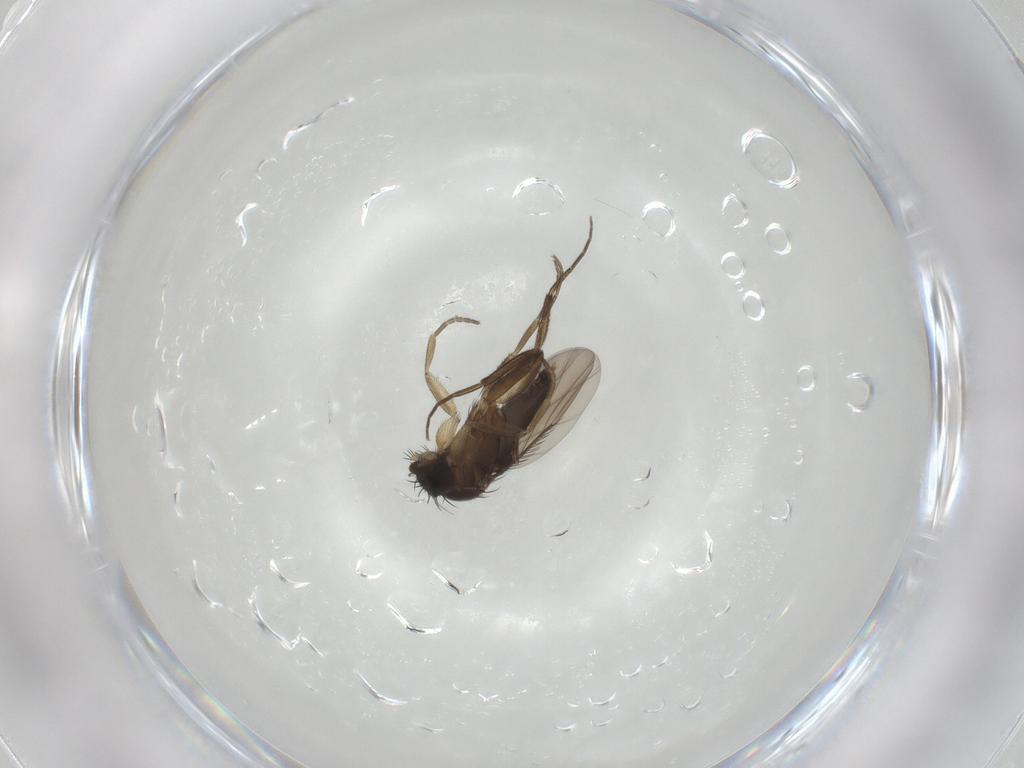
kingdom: Animalia
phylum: Arthropoda
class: Insecta
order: Diptera
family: Phoridae
